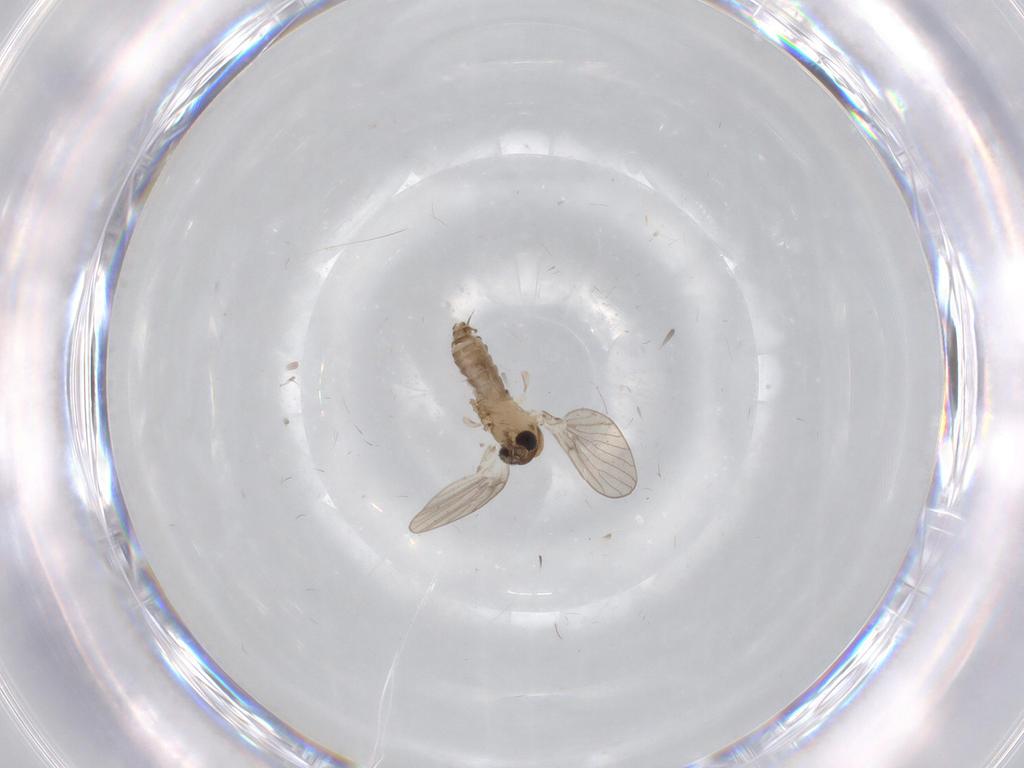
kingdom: Animalia
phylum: Arthropoda
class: Insecta
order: Diptera
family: Cecidomyiidae
